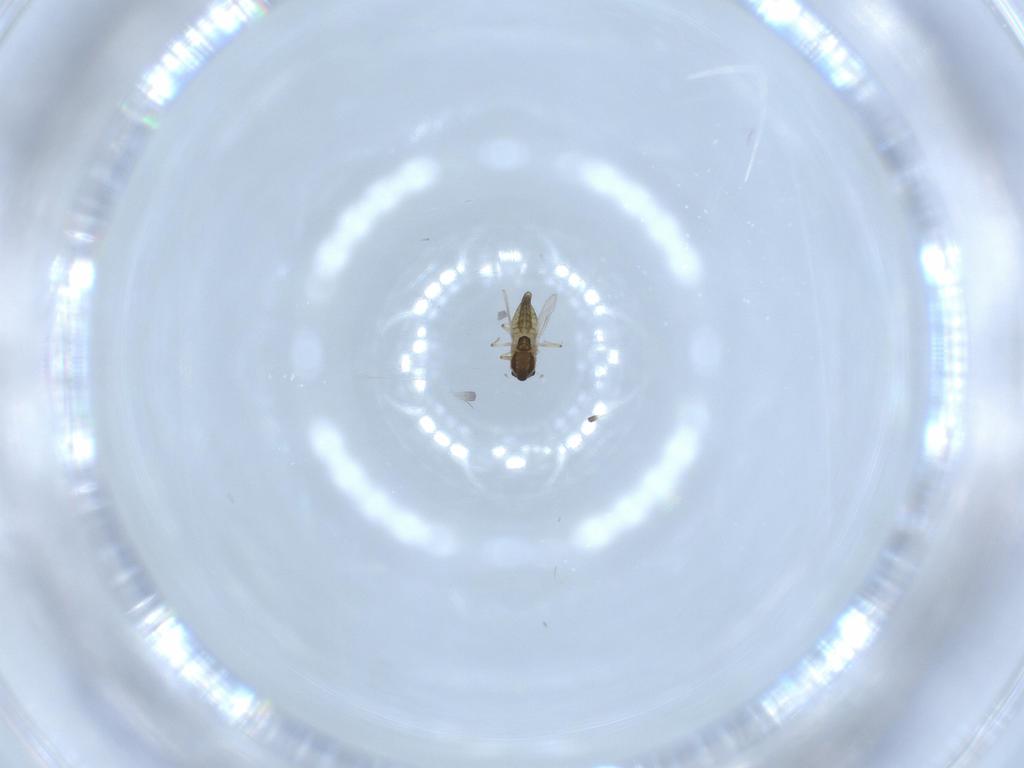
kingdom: Animalia
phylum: Arthropoda
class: Insecta
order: Diptera
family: Chironomidae
